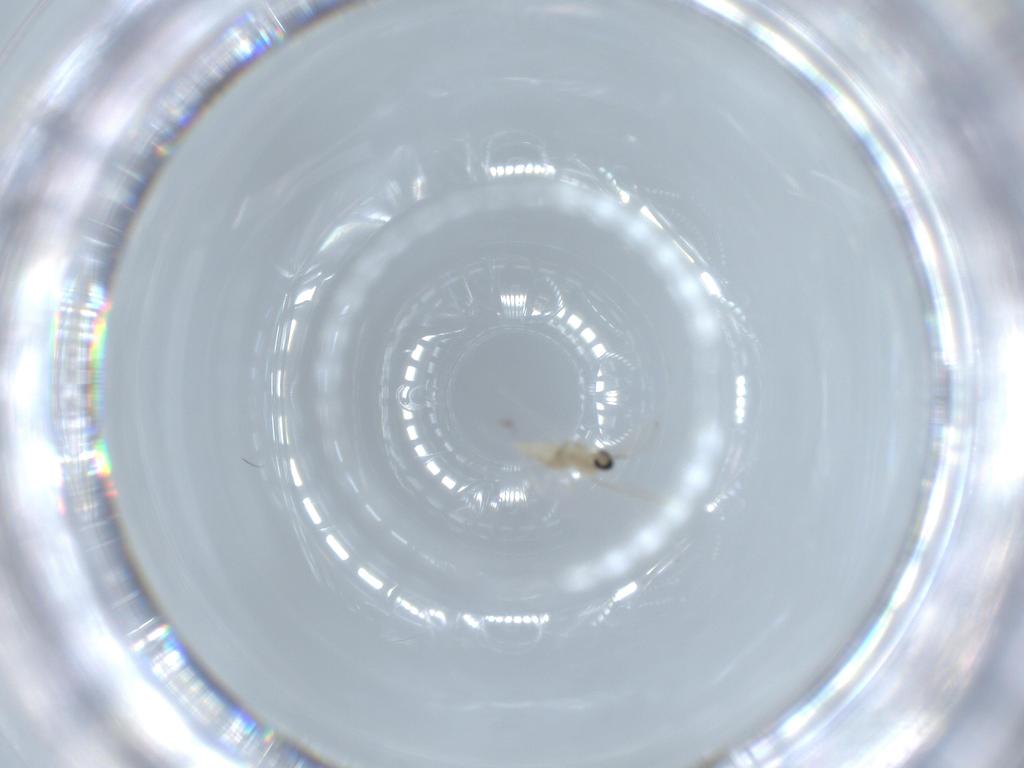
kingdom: Animalia
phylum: Arthropoda
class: Insecta
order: Diptera
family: Cecidomyiidae
